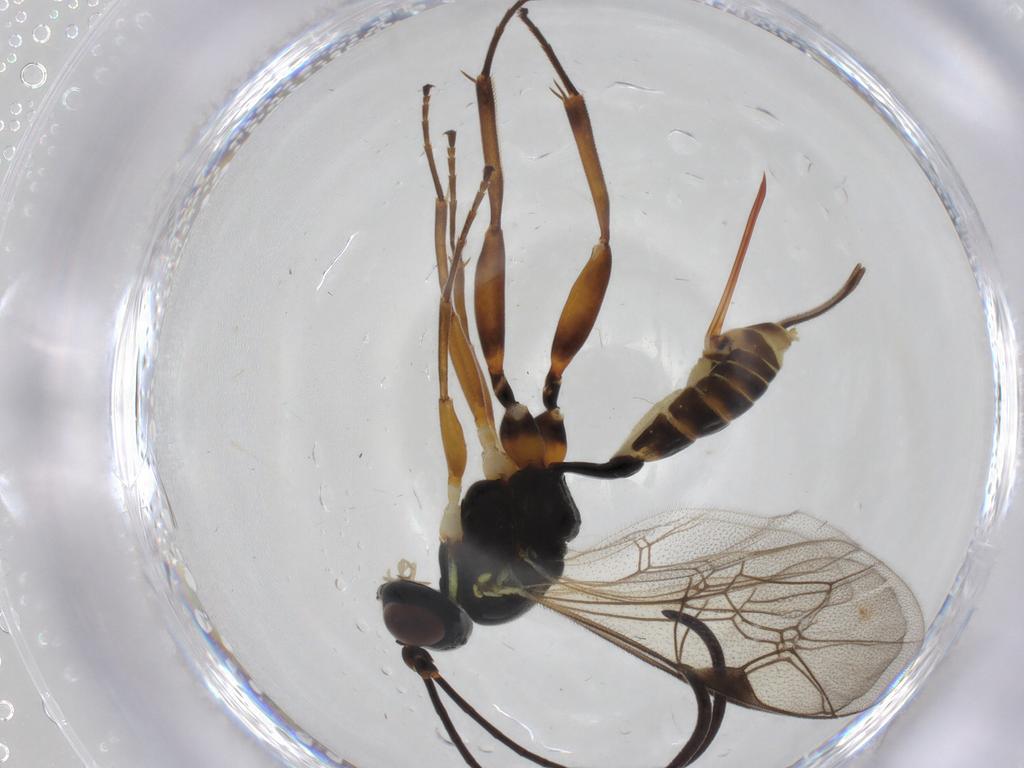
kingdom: Animalia
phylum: Arthropoda
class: Insecta
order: Hymenoptera
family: Ichneumonidae
